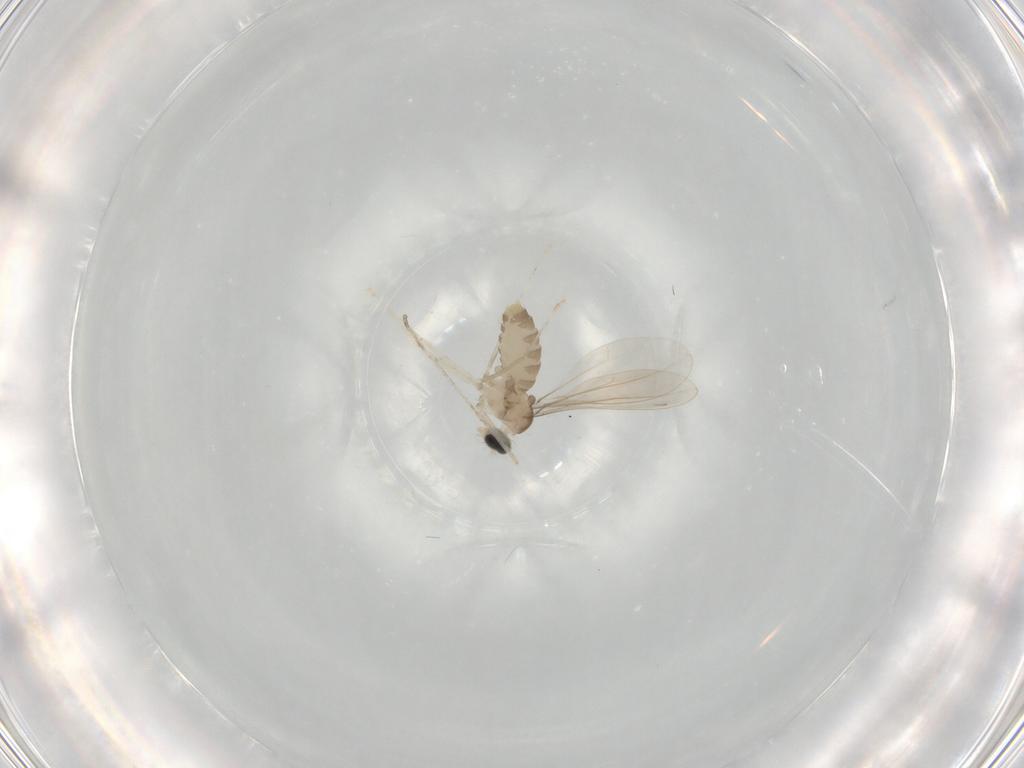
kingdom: Animalia
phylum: Arthropoda
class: Insecta
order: Diptera
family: Cecidomyiidae
